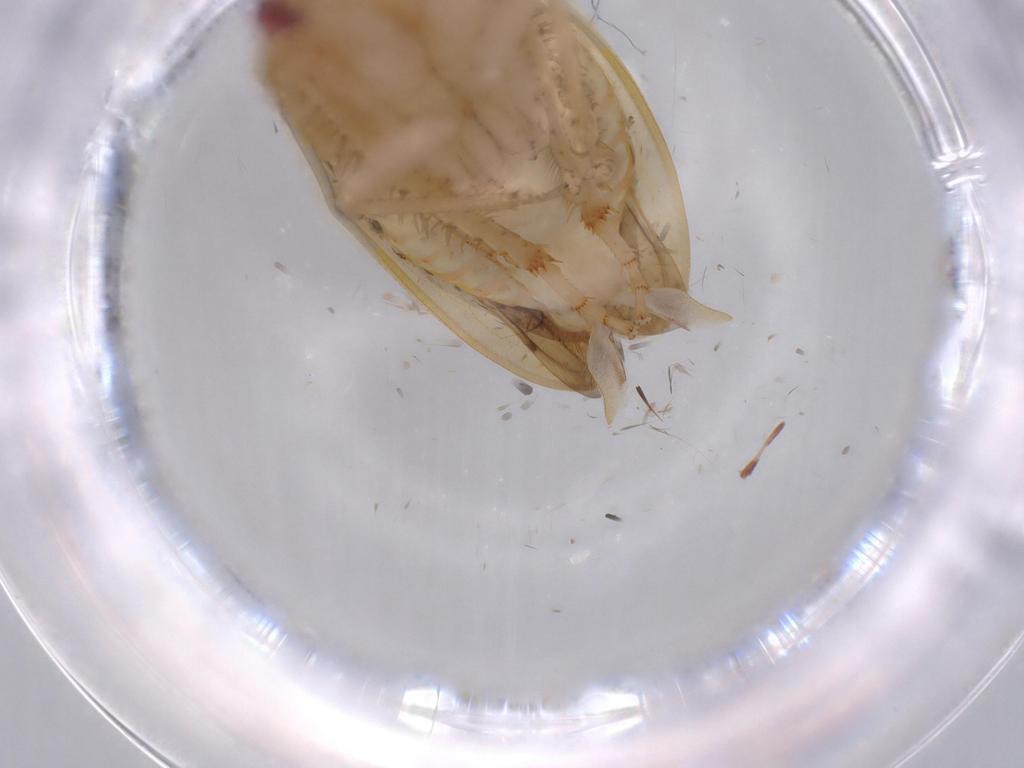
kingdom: Animalia
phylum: Arthropoda
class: Insecta
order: Hemiptera
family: Cicadellidae
